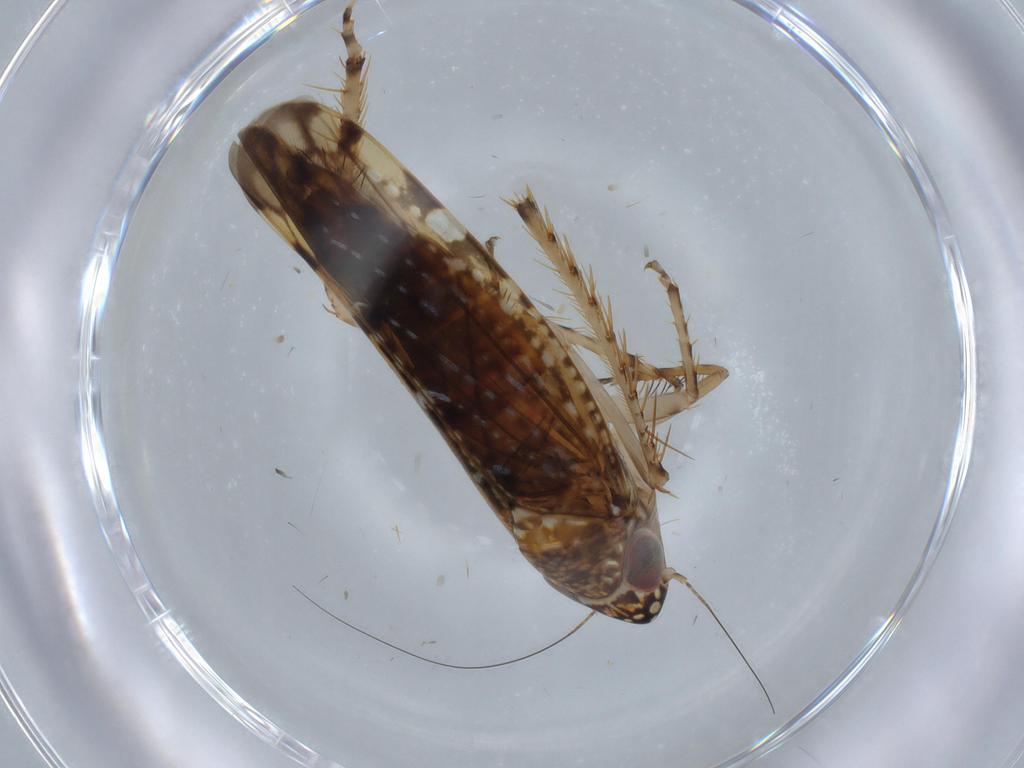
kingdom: Animalia
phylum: Arthropoda
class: Insecta
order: Hemiptera
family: Cicadellidae
